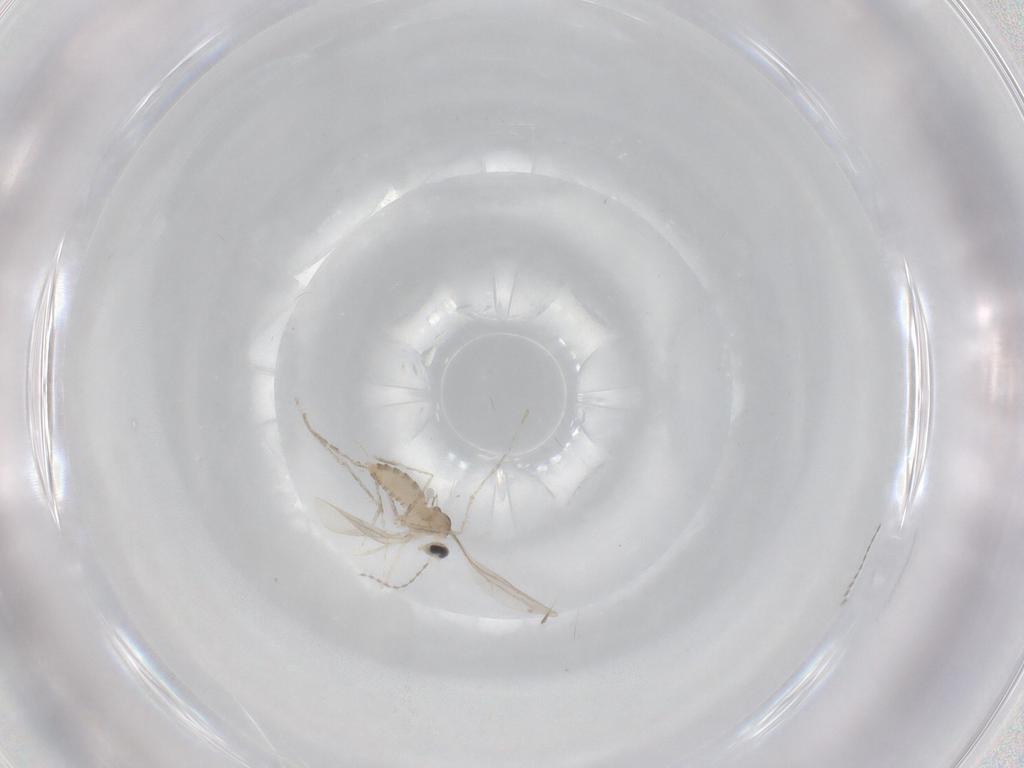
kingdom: Animalia
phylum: Arthropoda
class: Insecta
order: Diptera
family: Cecidomyiidae
